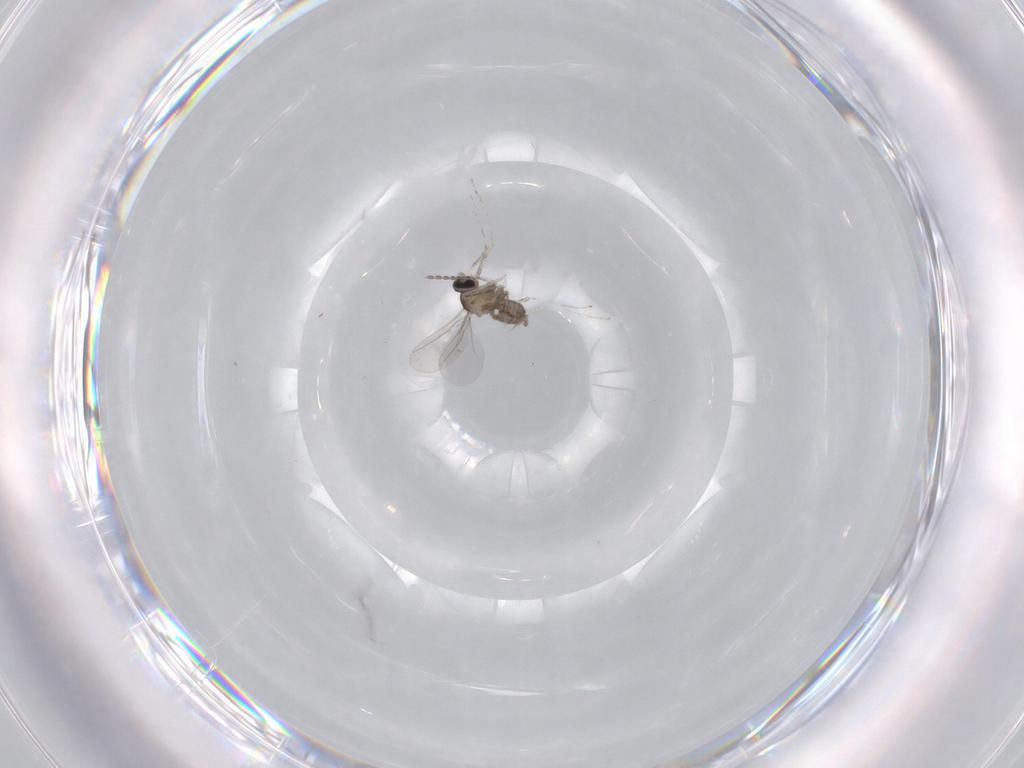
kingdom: Animalia
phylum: Arthropoda
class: Insecta
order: Diptera
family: Cecidomyiidae
